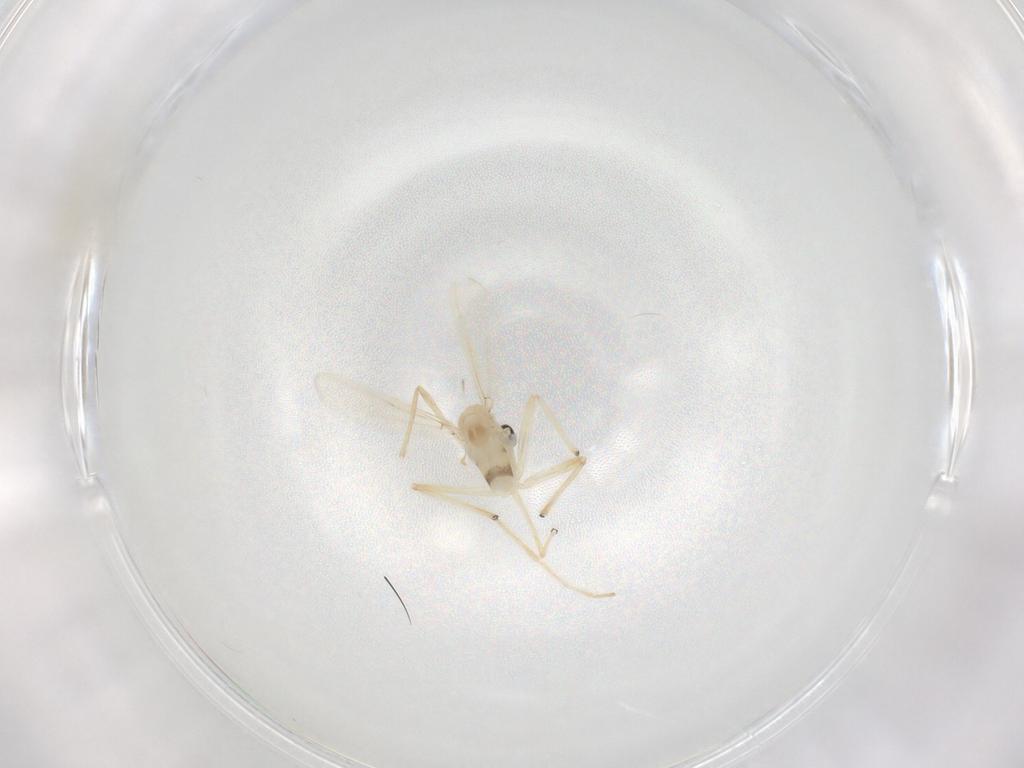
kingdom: Animalia
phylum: Arthropoda
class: Insecta
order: Diptera
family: Chironomidae
